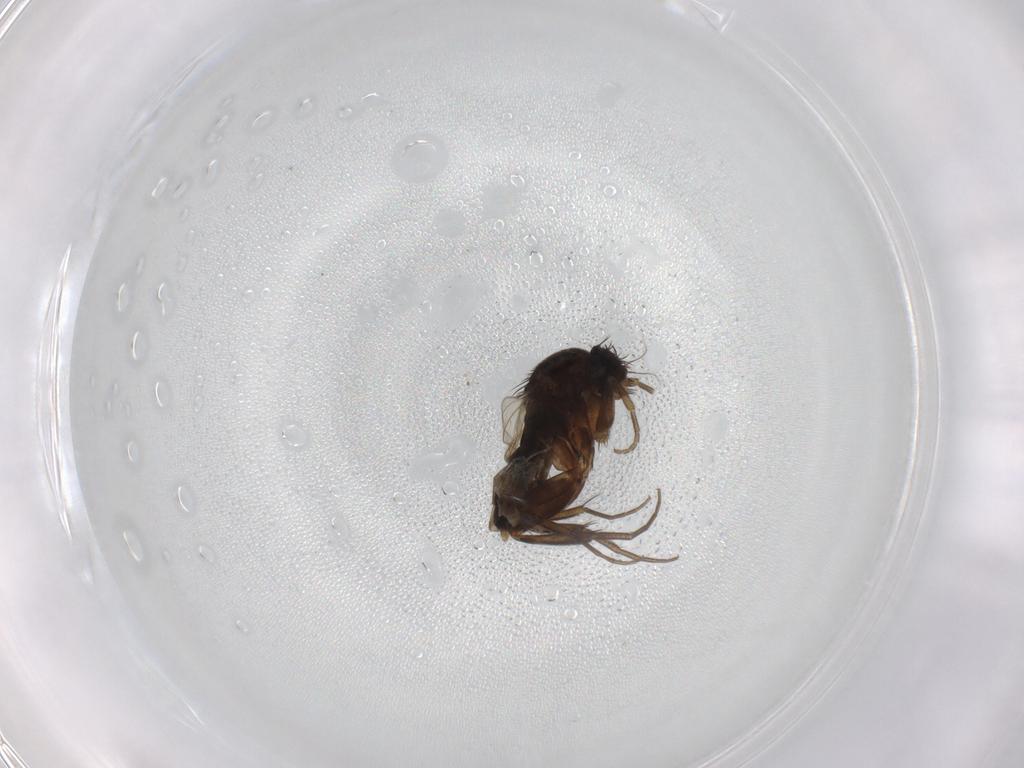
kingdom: Animalia
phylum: Arthropoda
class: Insecta
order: Diptera
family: Phoridae
